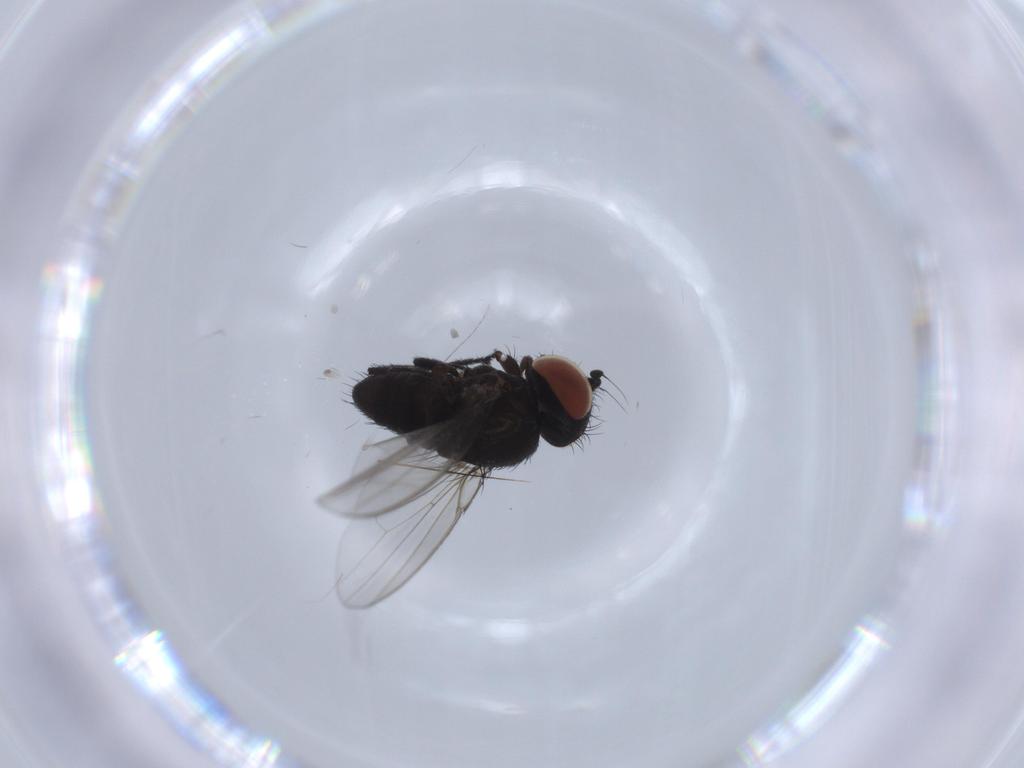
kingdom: Animalia
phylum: Arthropoda
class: Insecta
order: Diptera
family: Milichiidae
